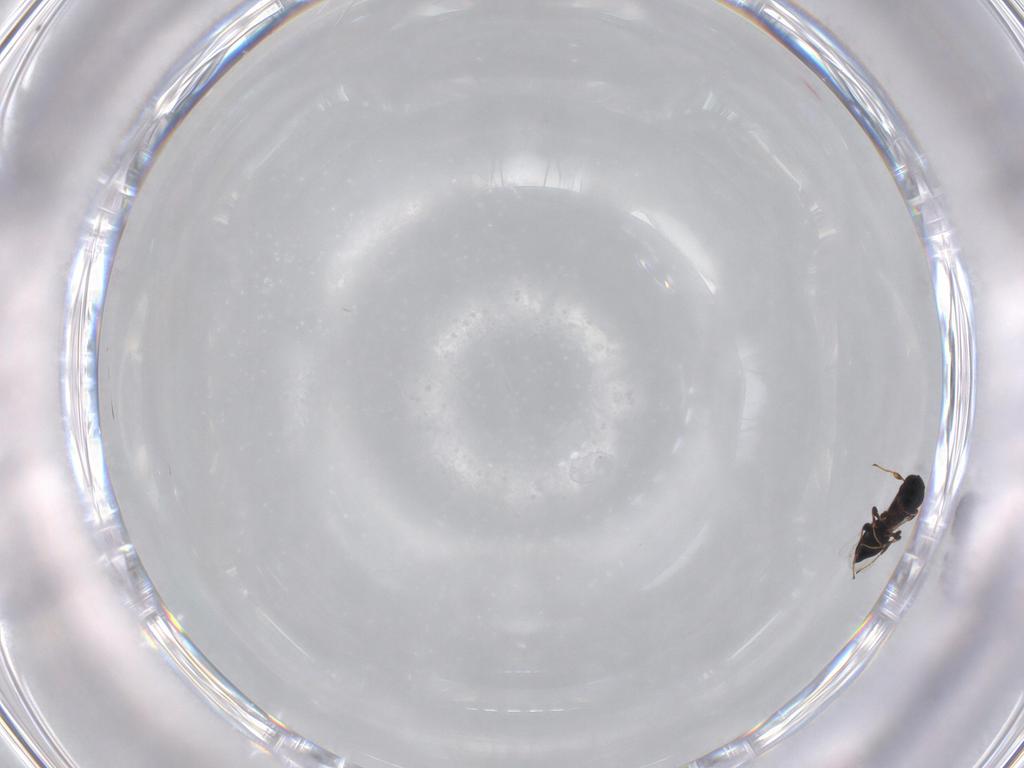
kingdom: Animalia
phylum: Arthropoda
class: Insecta
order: Hymenoptera
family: Platygastridae
